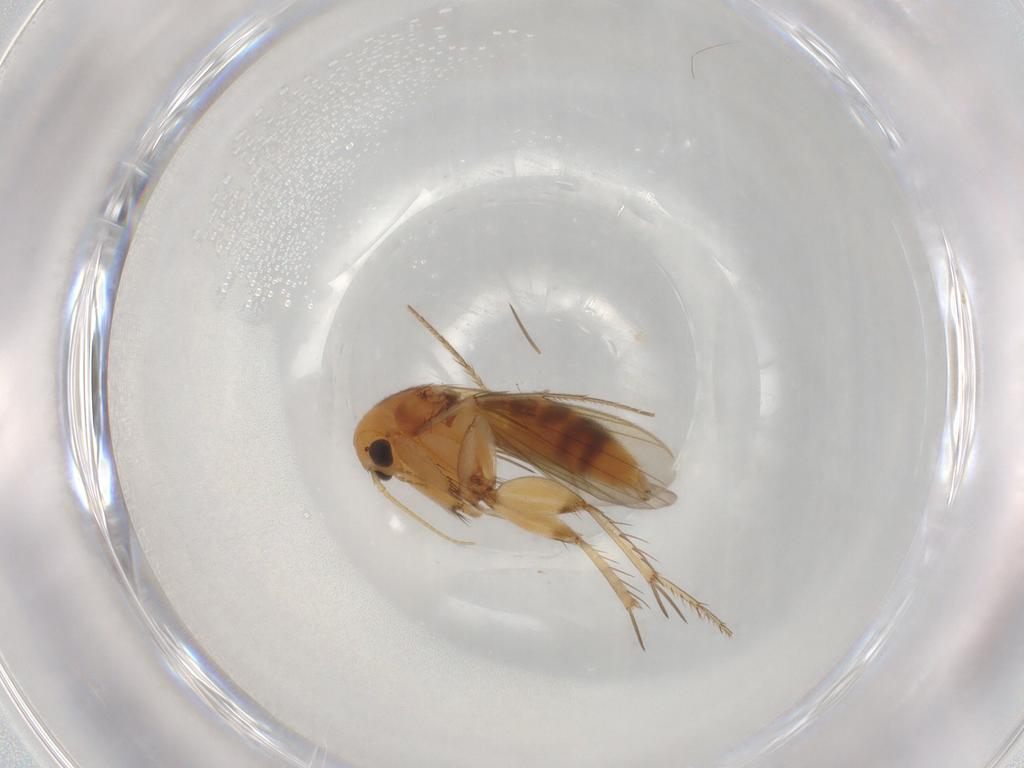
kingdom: Animalia
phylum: Arthropoda
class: Insecta
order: Diptera
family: Mycetophilidae
